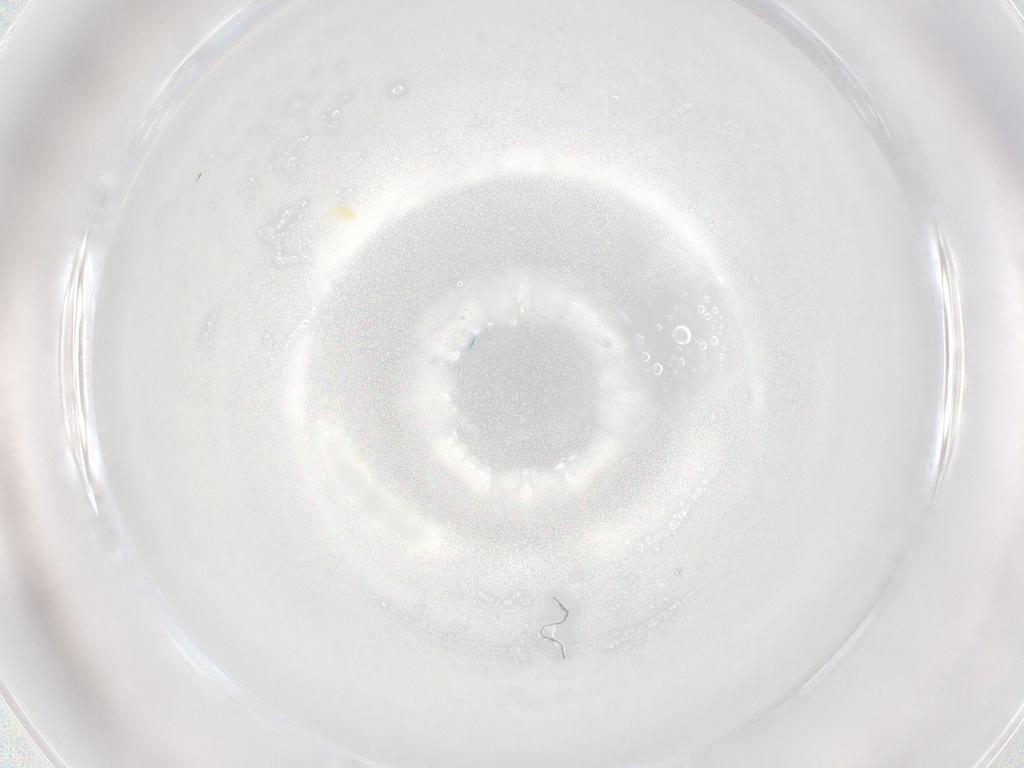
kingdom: Animalia
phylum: Arthropoda
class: Arachnida
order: Trombidiformes
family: Eupodidae
